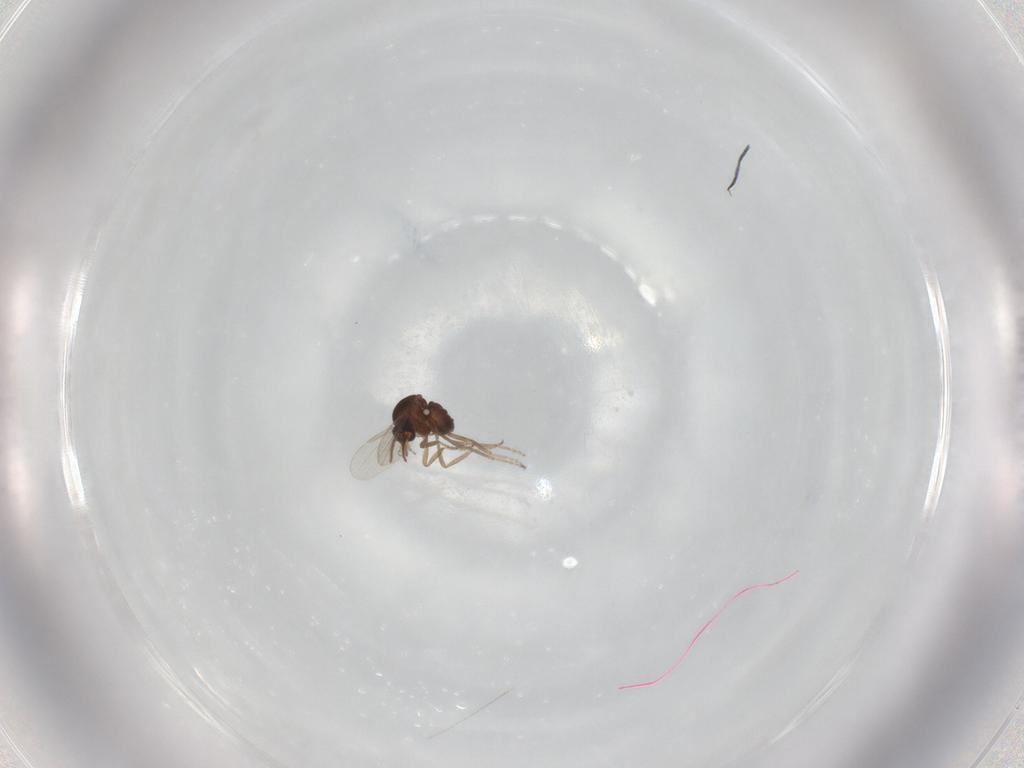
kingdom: Animalia
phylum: Arthropoda
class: Insecta
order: Diptera
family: Ceratopogonidae
